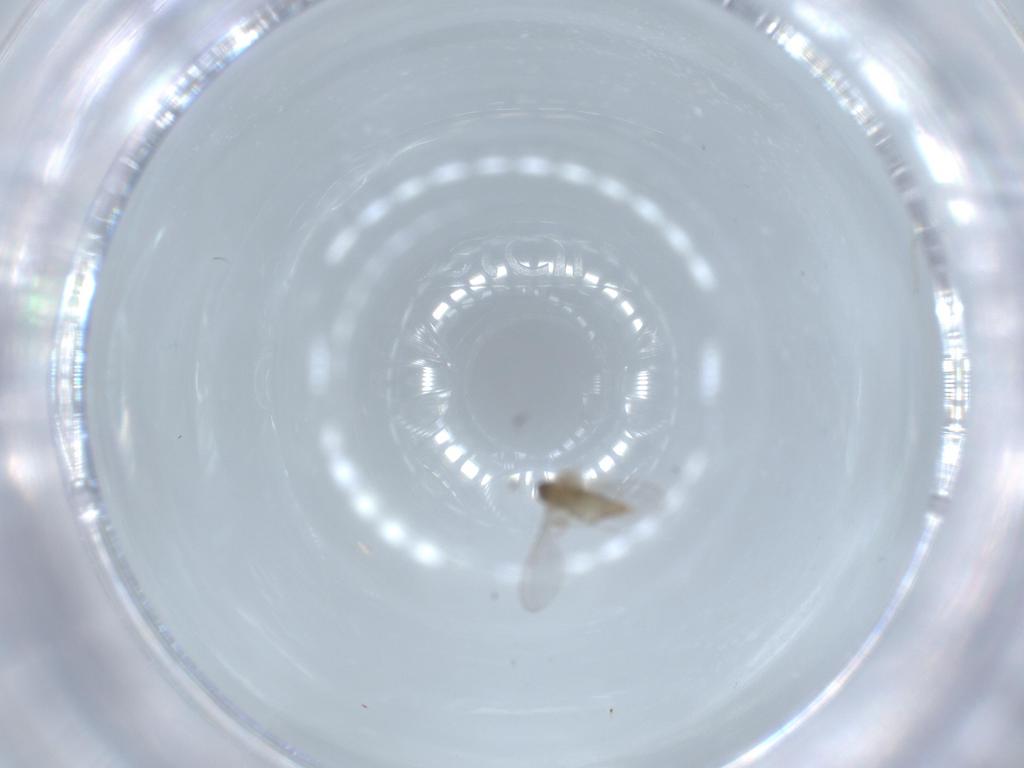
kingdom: Animalia
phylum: Arthropoda
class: Insecta
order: Diptera
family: Cecidomyiidae
